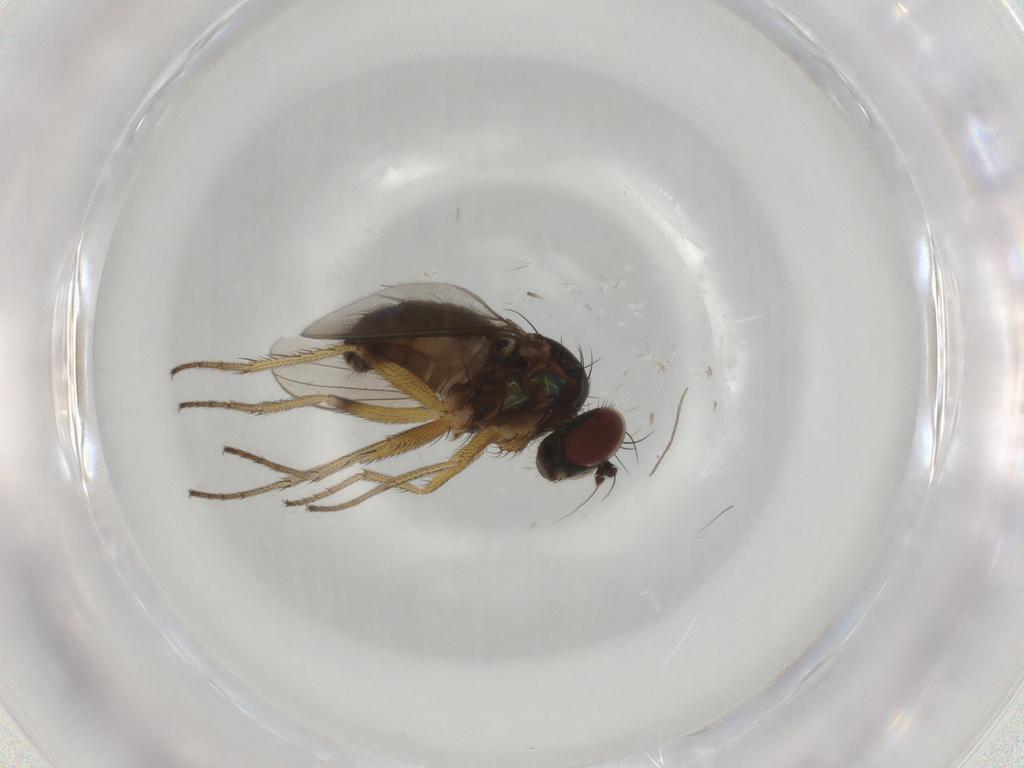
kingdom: Animalia
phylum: Arthropoda
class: Insecta
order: Diptera
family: Dolichopodidae
